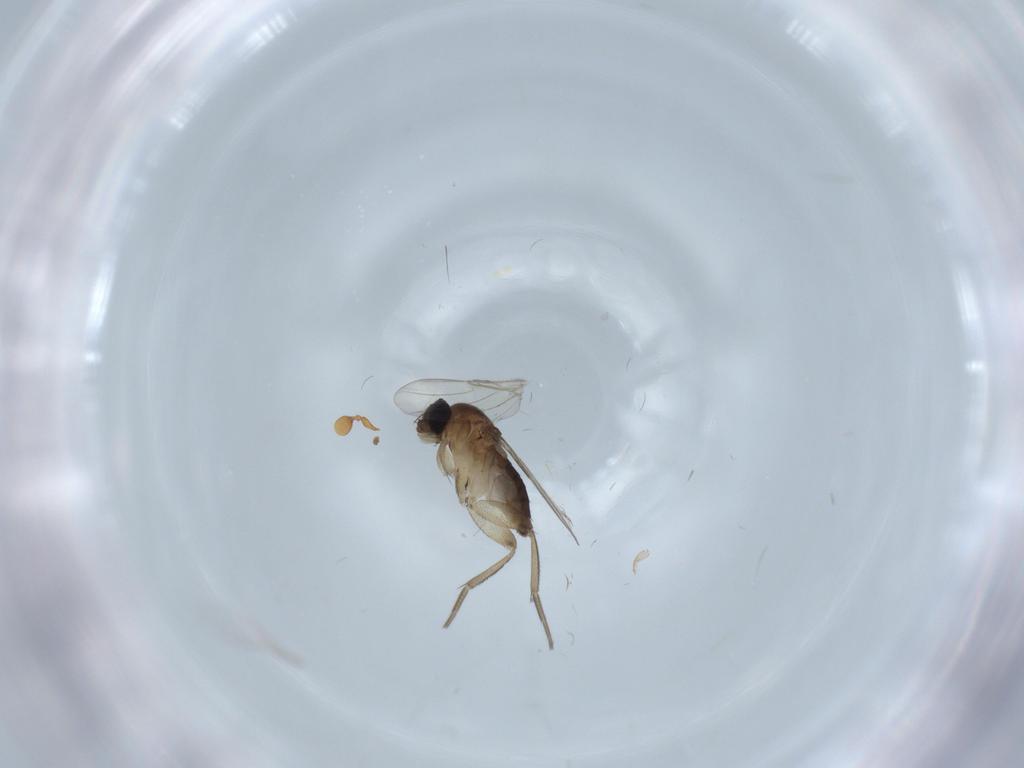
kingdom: Animalia
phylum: Arthropoda
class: Insecta
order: Diptera
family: Phoridae
